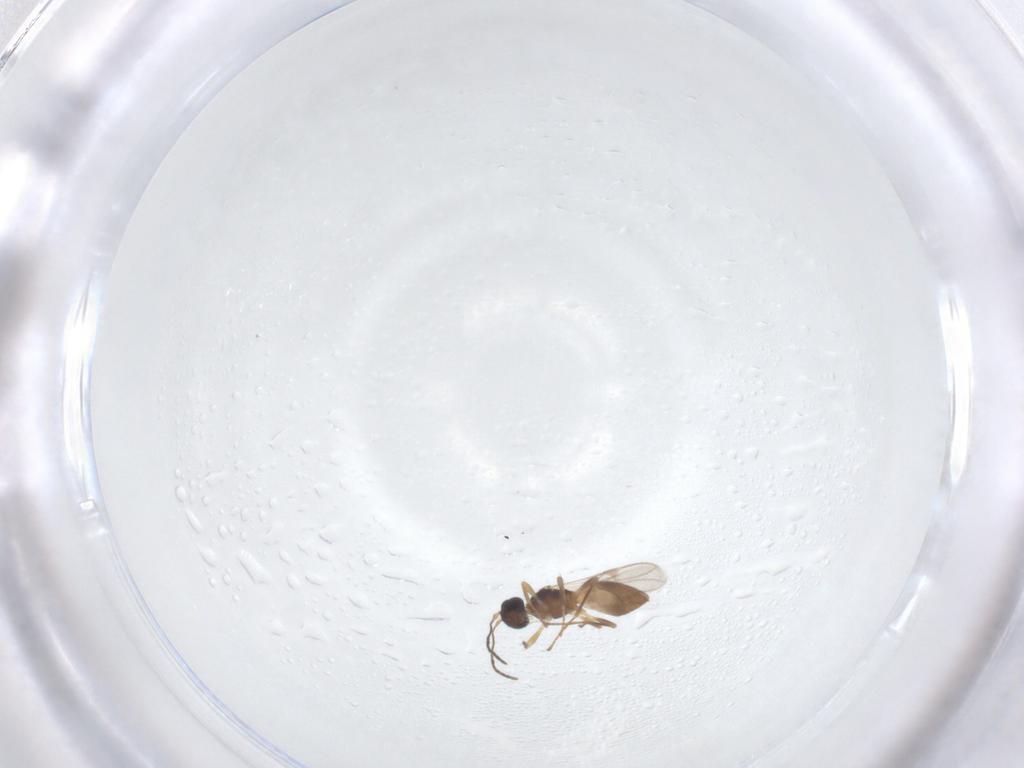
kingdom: Animalia
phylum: Arthropoda
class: Insecta
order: Hymenoptera
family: Braconidae
